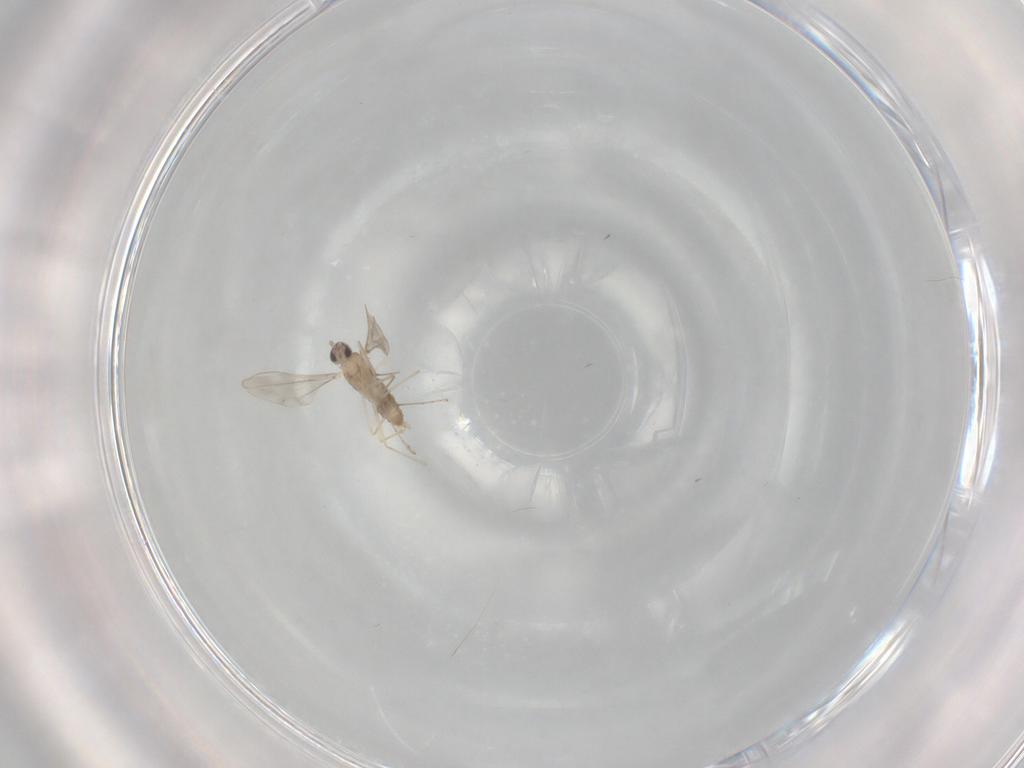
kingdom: Animalia
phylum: Arthropoda
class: Insecta
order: Diptera
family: Cecidomyiidae
